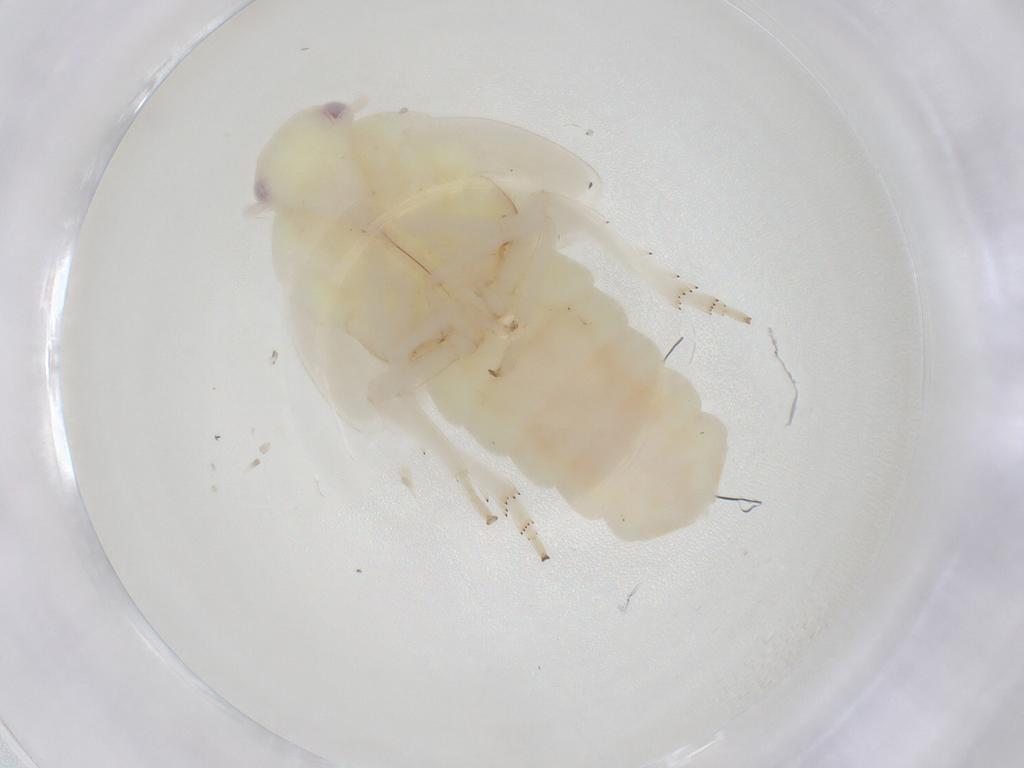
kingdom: Animalia
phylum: Arthropoda
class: Insecta
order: Hemiptera
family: Flatidae
